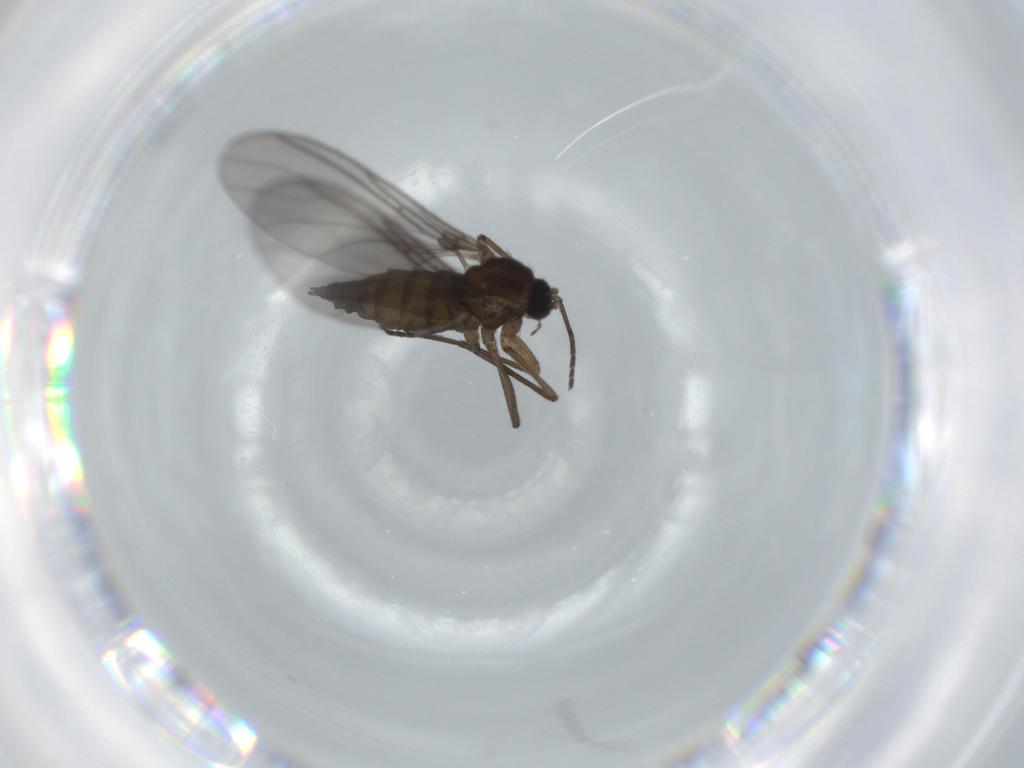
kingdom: Animalia
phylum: Arthropoda
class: Insecta
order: Diptera
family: Sciaridae
